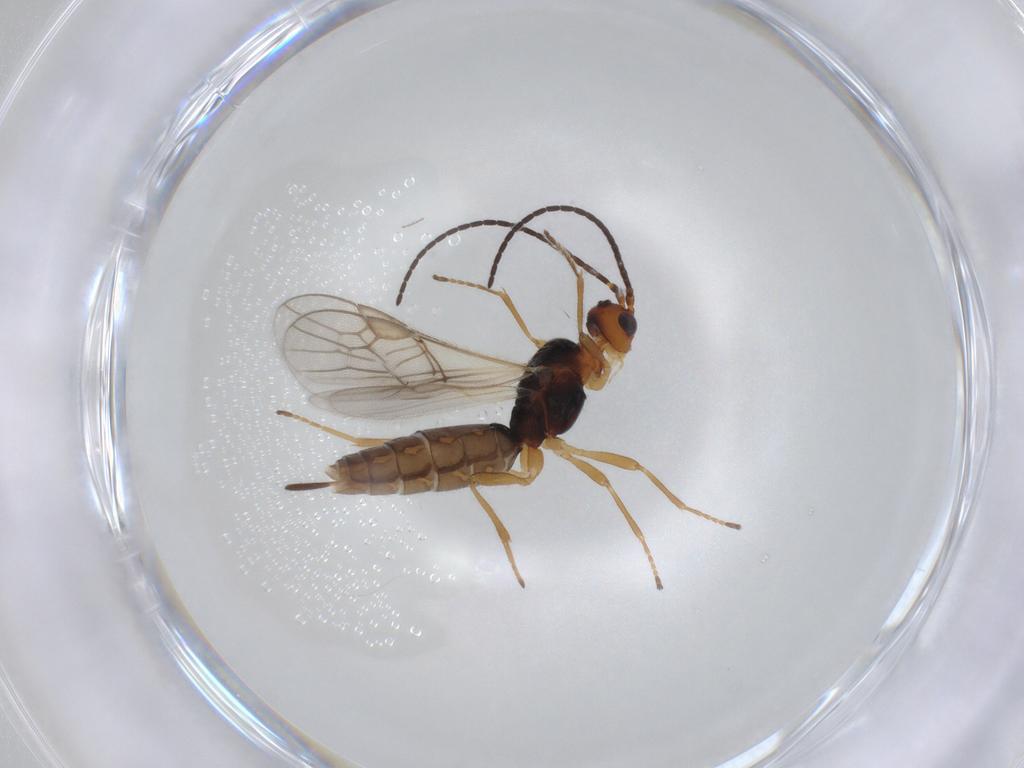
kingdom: Animalia
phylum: Arthropoda
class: Insecta
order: Hymenoptera
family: Braconidae
